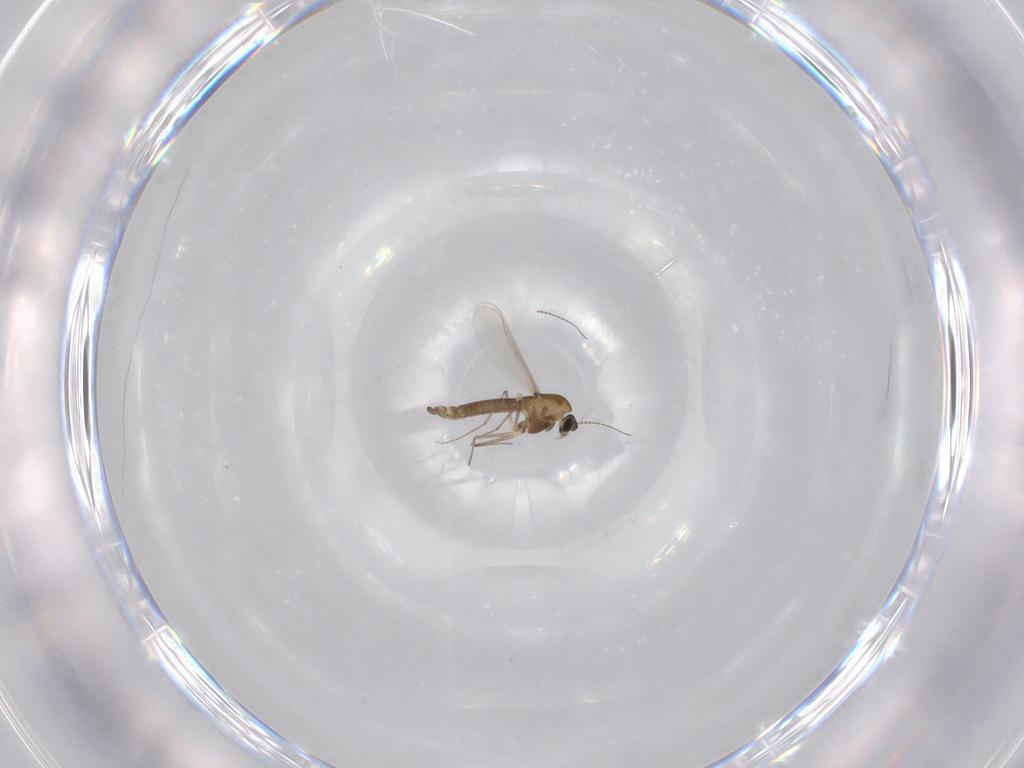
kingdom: Animalia
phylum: Arthropoda
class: Insecta
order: Diptera
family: Cecidomyiidae
